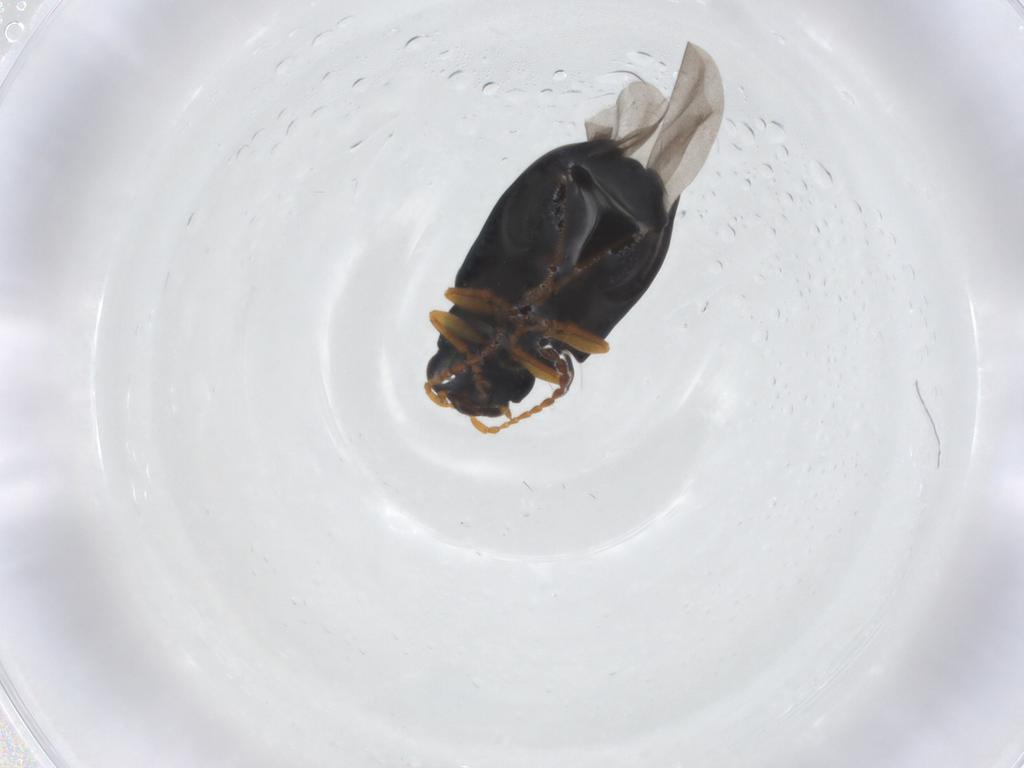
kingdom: Animalia
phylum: Arthropoda
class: Insecta
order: Coleoptera
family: Chrysomelidae
